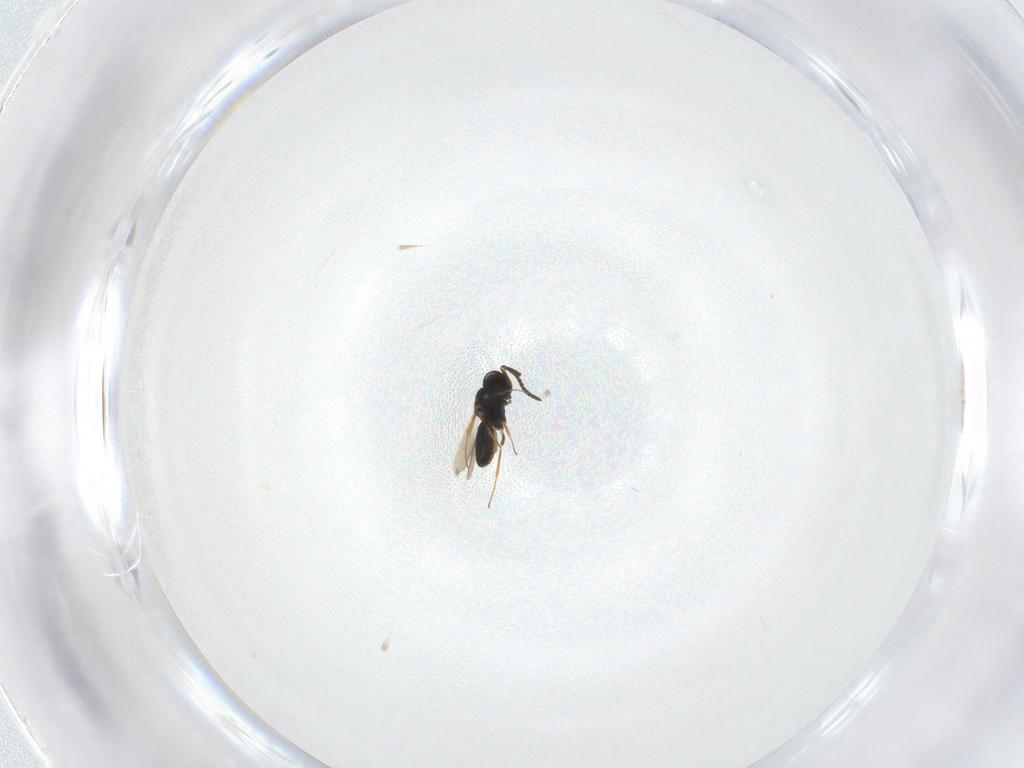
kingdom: Animalia
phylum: Arthropoda
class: Insecta
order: Hymenoptera
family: Scelionidae
